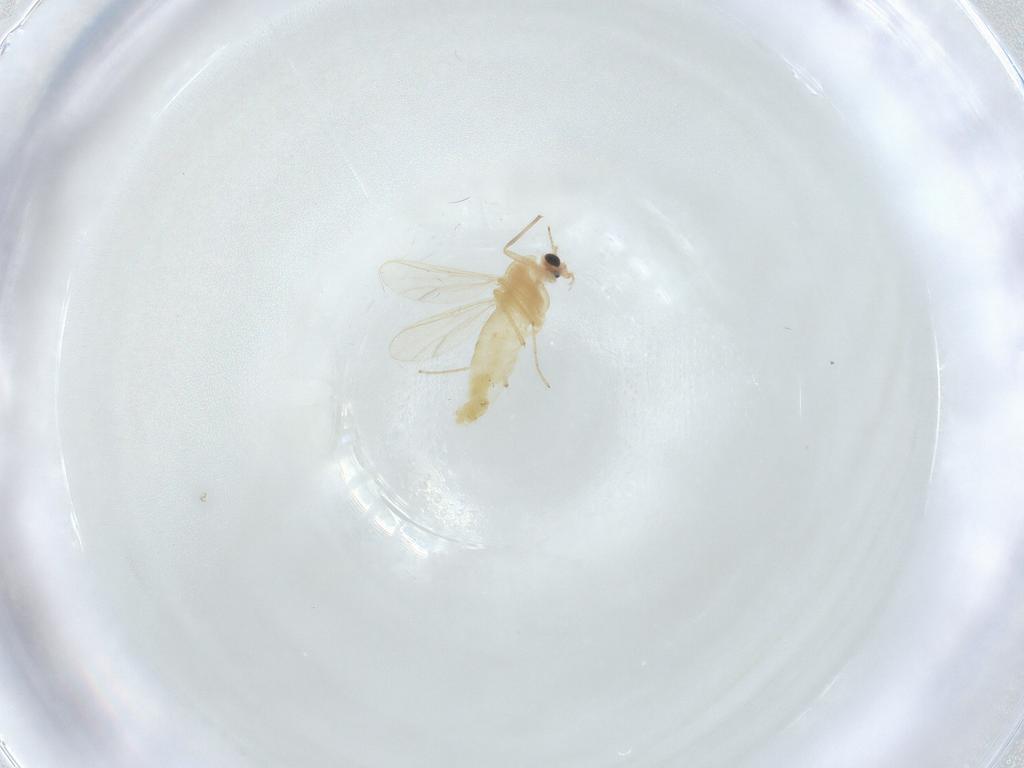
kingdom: Animalia
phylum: Arthropoda
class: Insecta
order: Diptera
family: Chironomidae
